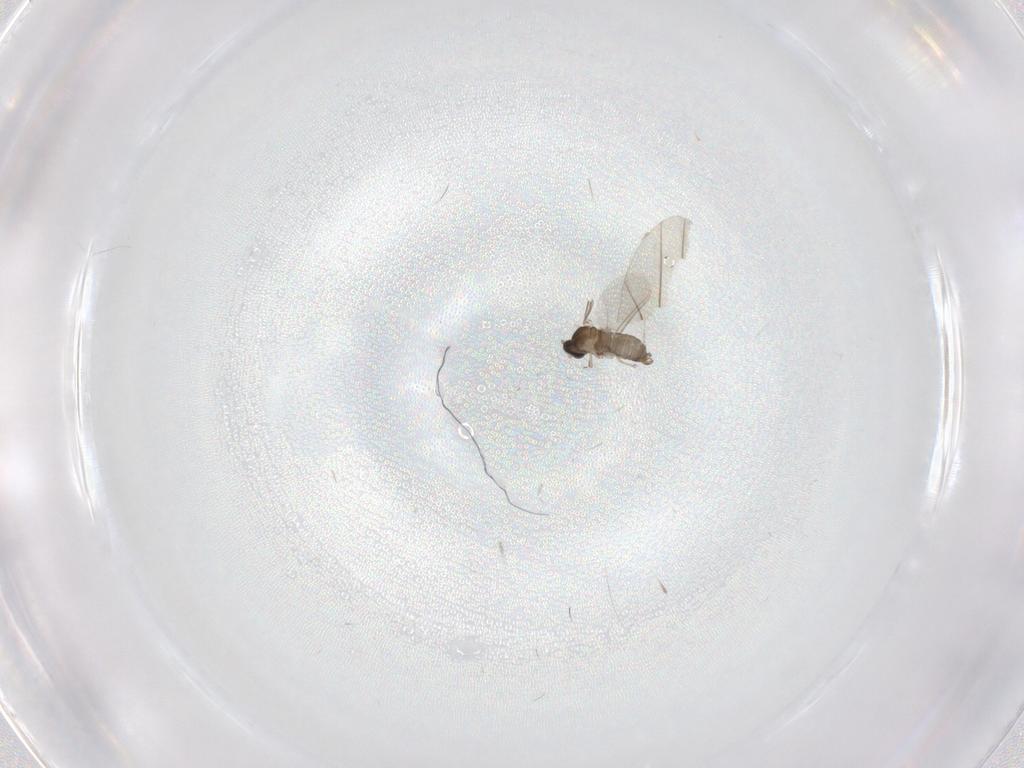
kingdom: Animalia
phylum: Arthropoda
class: Insecta
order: Diptera
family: Cecidomyiidae
